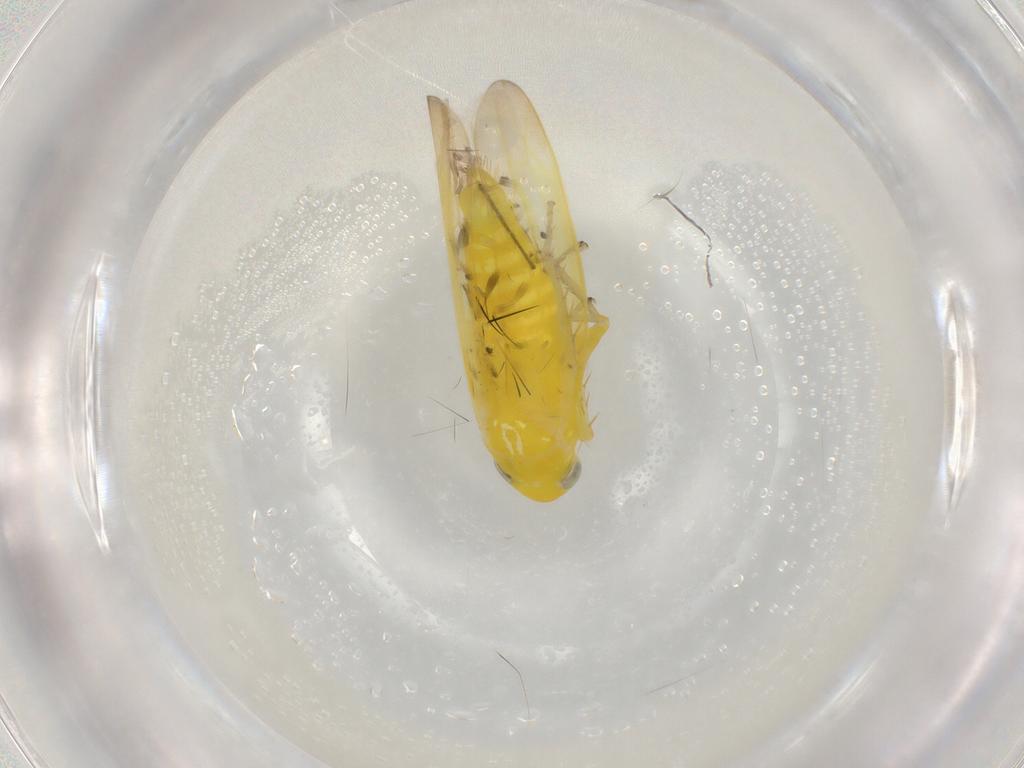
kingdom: Animalia
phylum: Arthropoda
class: Insecta
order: Hemiptera
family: Cicadellidae
